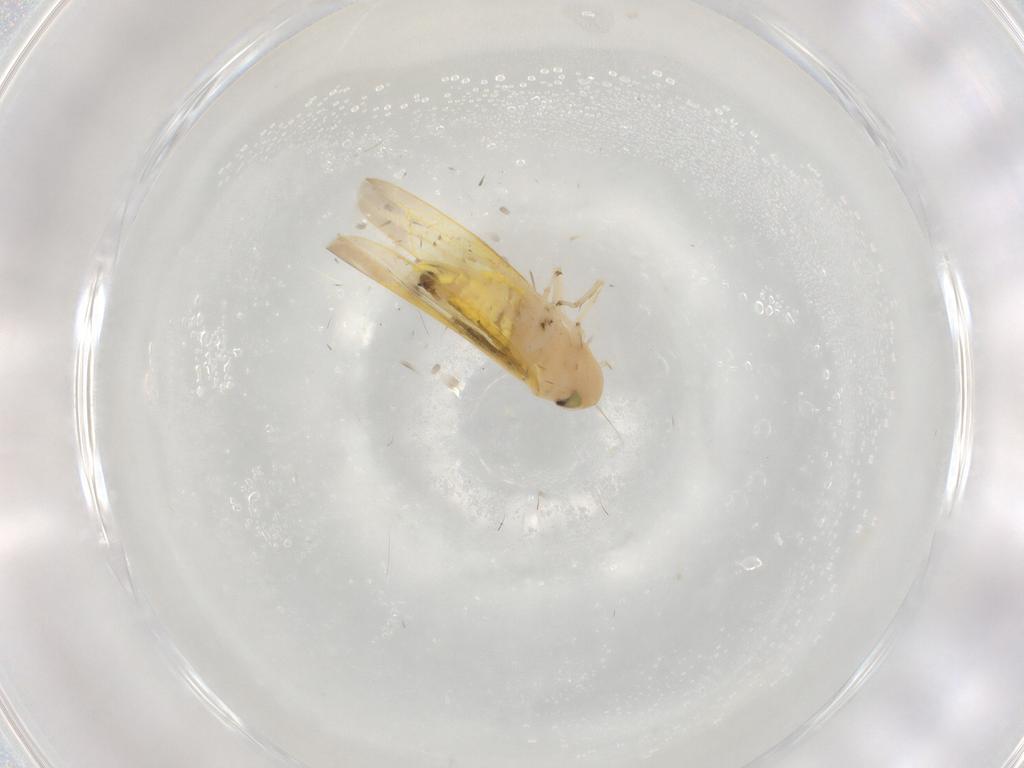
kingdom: Animalia
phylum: Arthropoda
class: Insecta
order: Hemiptera
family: Cicadellidae
